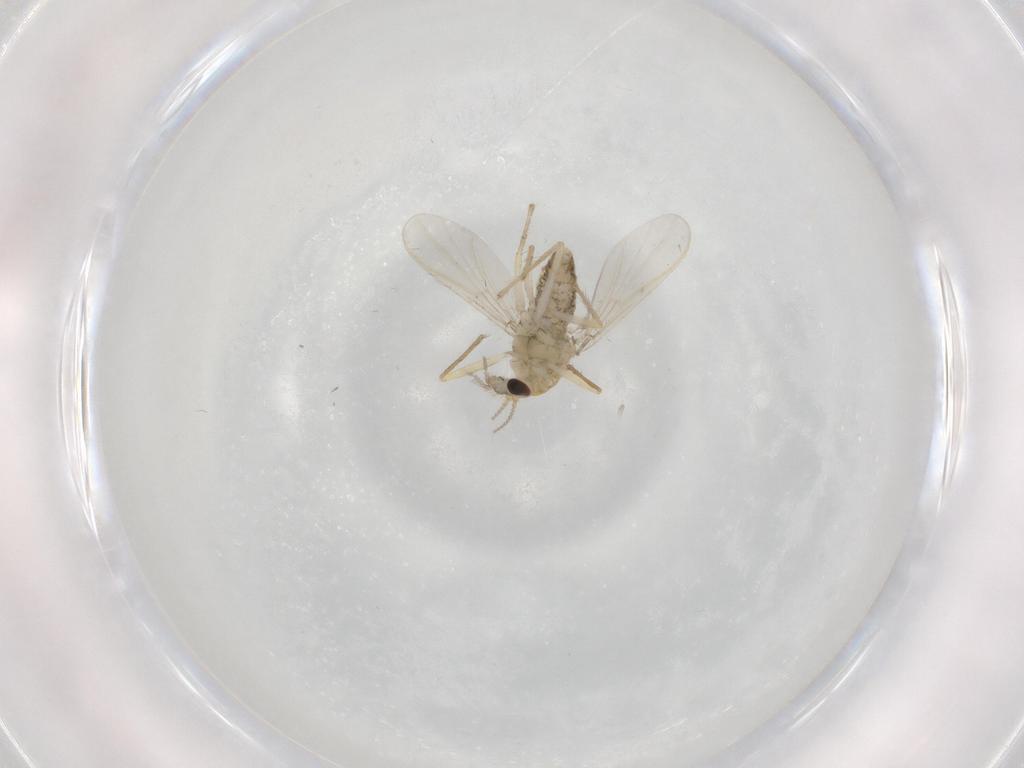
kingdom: Animalia
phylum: Arthropoda
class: Insecta
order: Diptera
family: Chironomidae
